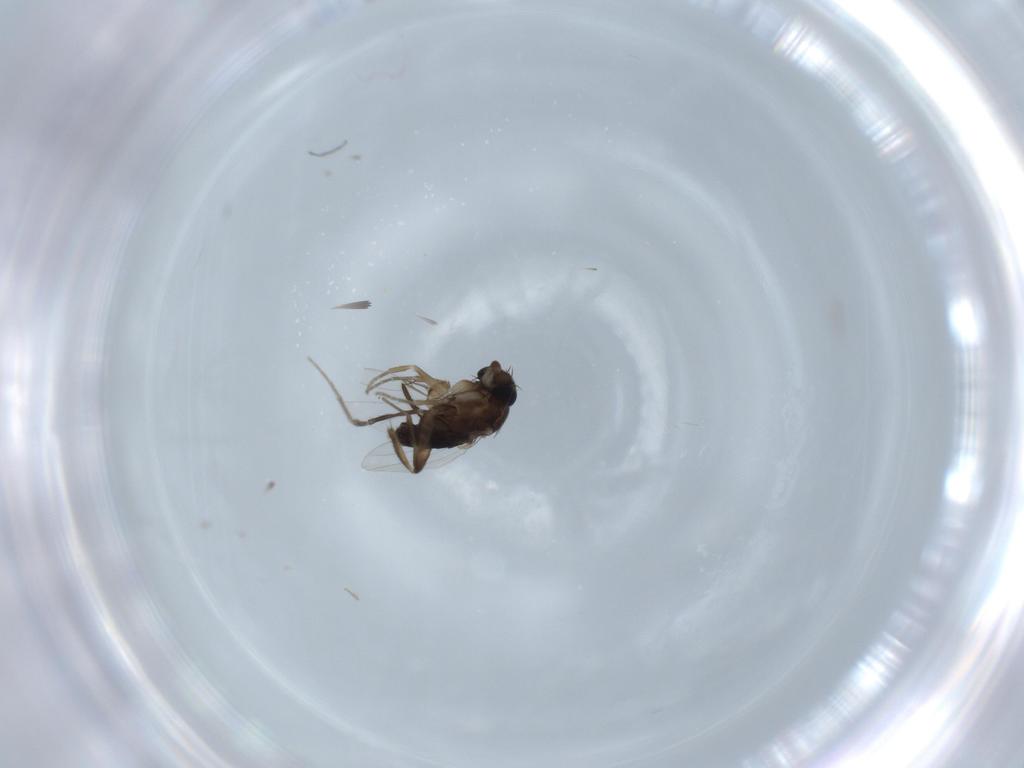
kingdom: Animalia
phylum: Arthropoda
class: Insecta
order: Diptera
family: Phoridae
